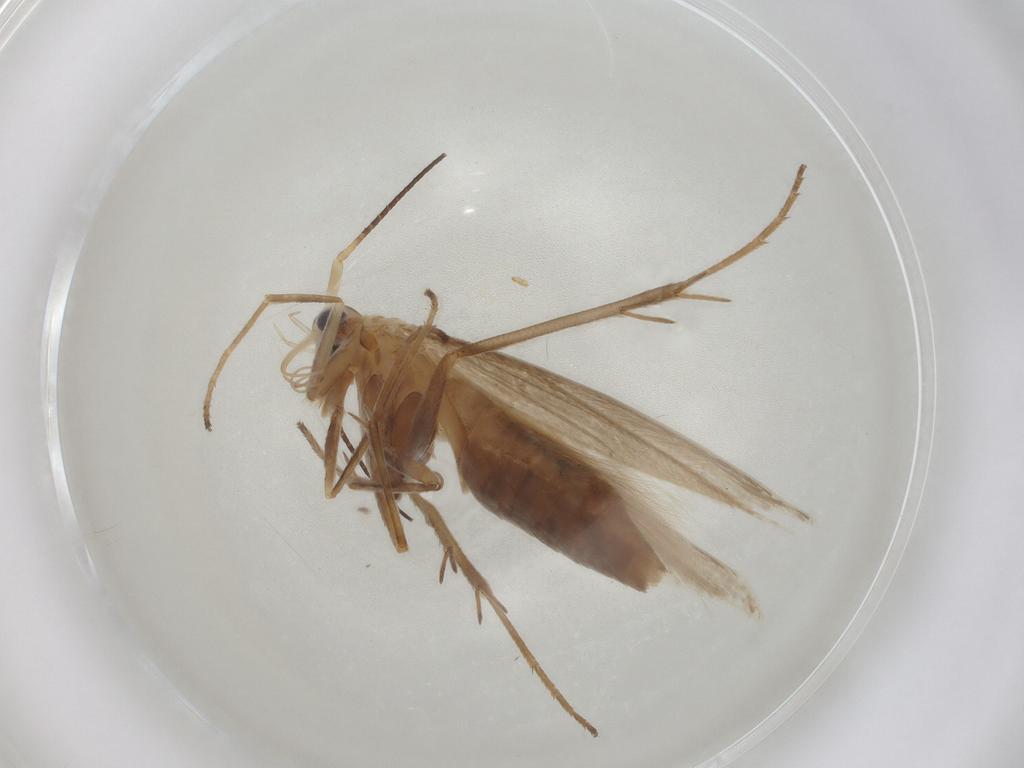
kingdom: Animalia
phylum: Arthropoda
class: Insecta
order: Lepidoptera
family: Coleophoridae
